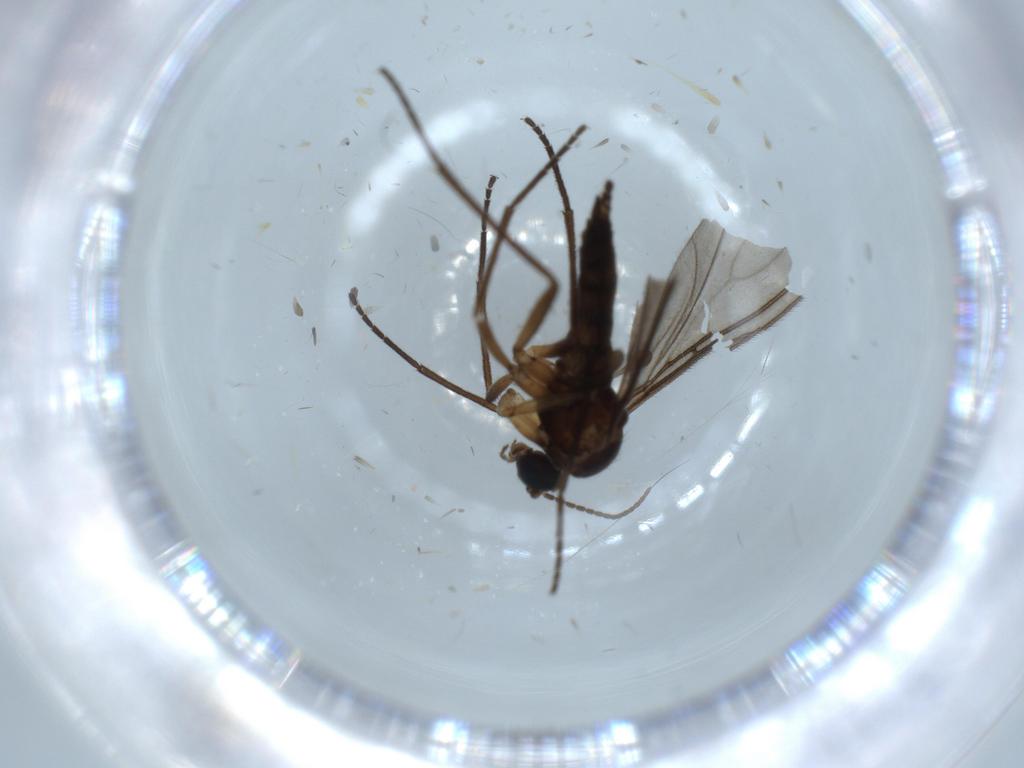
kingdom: Animalia
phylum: Arthropoda
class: Insecta
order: Diptera
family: Sciaridae
